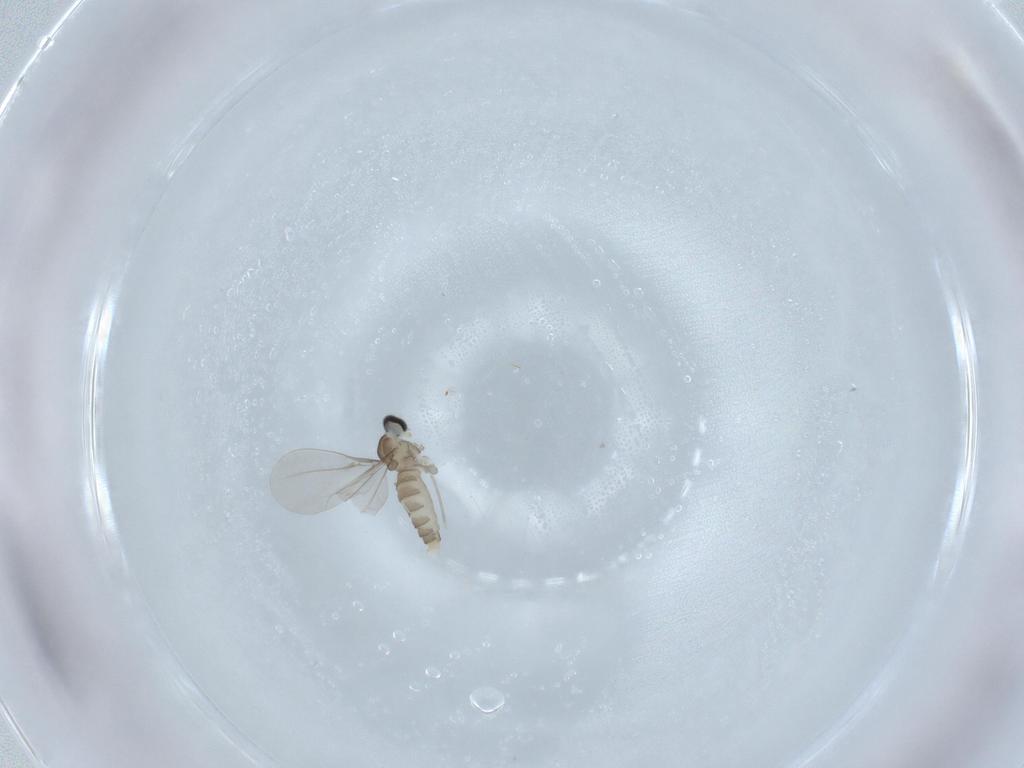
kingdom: Animalia
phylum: Arthropoda
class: Insecta
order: Diptera
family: Cecidomyiidae
